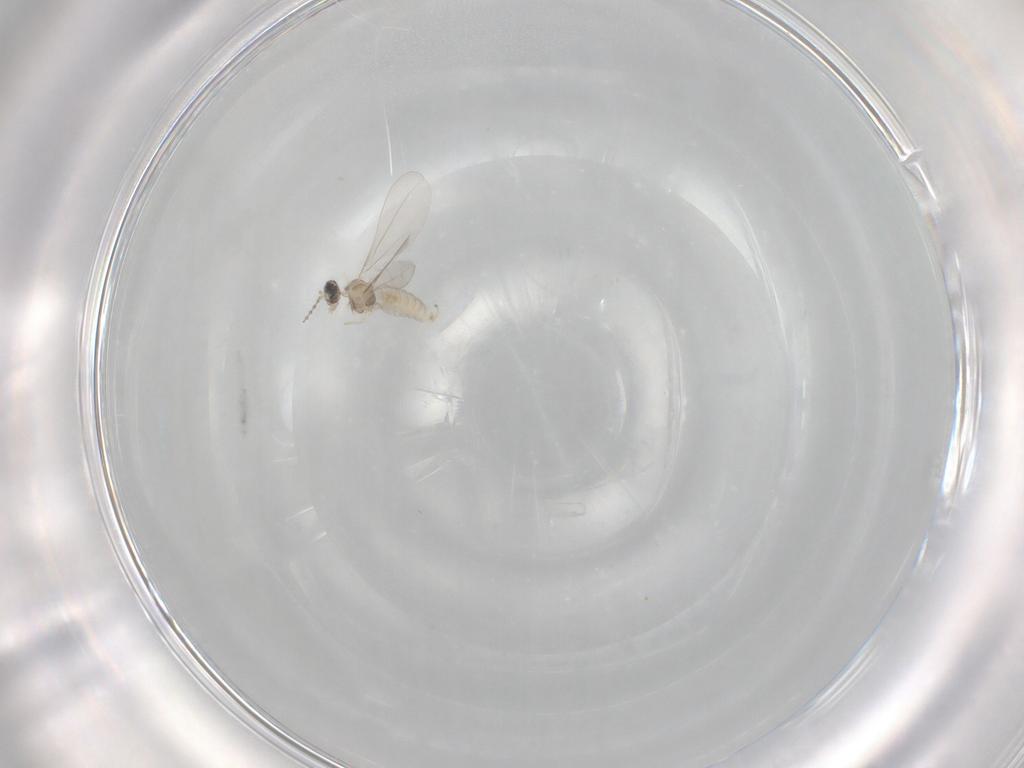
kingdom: Animalia
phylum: Arthropoda
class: Insecta
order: Diptera
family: Cecidomyiidae
